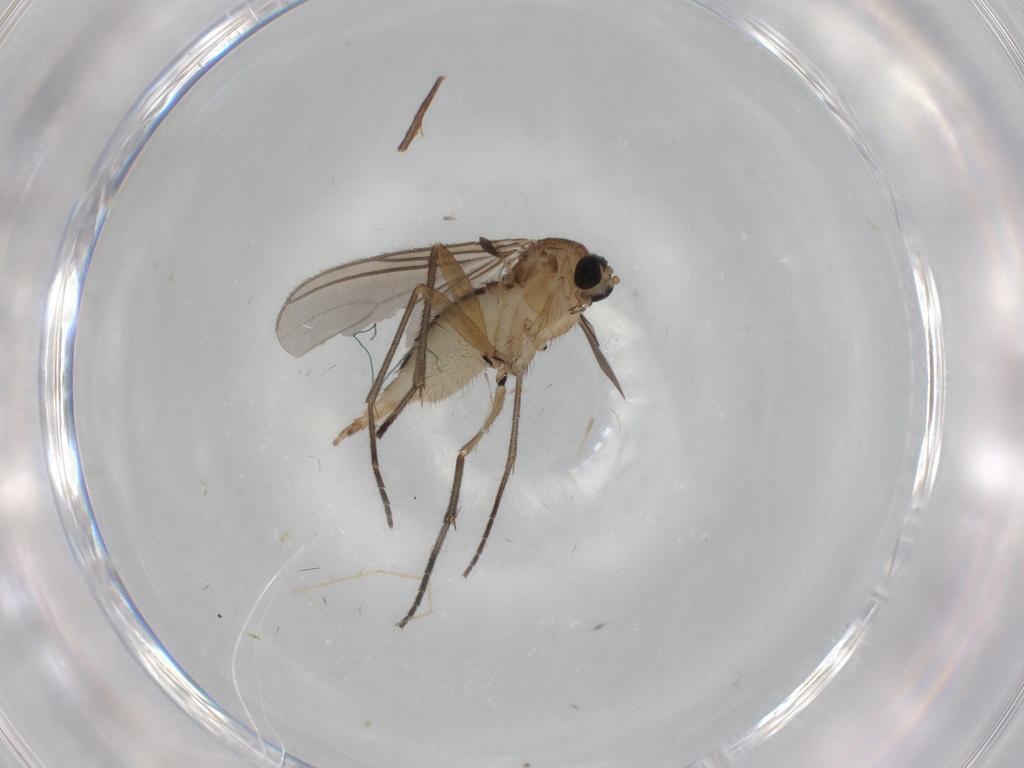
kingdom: Animalia
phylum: Arthropoda
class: Insecta
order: Diptera
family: Sciaridae
